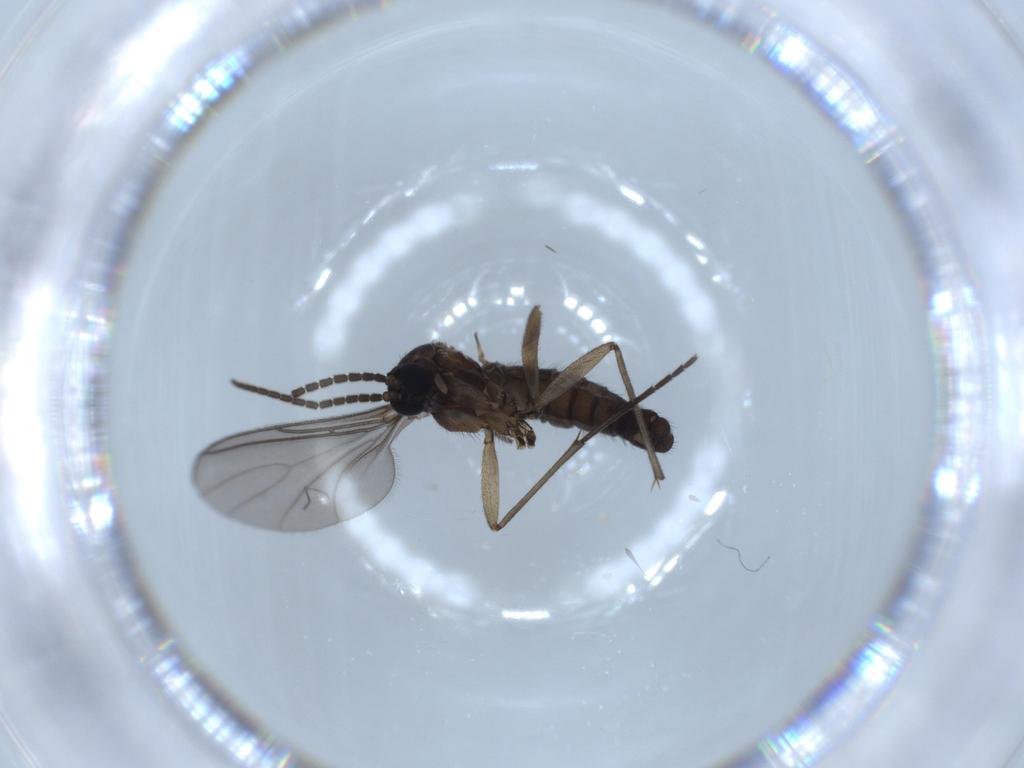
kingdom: Animalia
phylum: Arthropoda
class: Insecta
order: Diptera
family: Sciaridae
